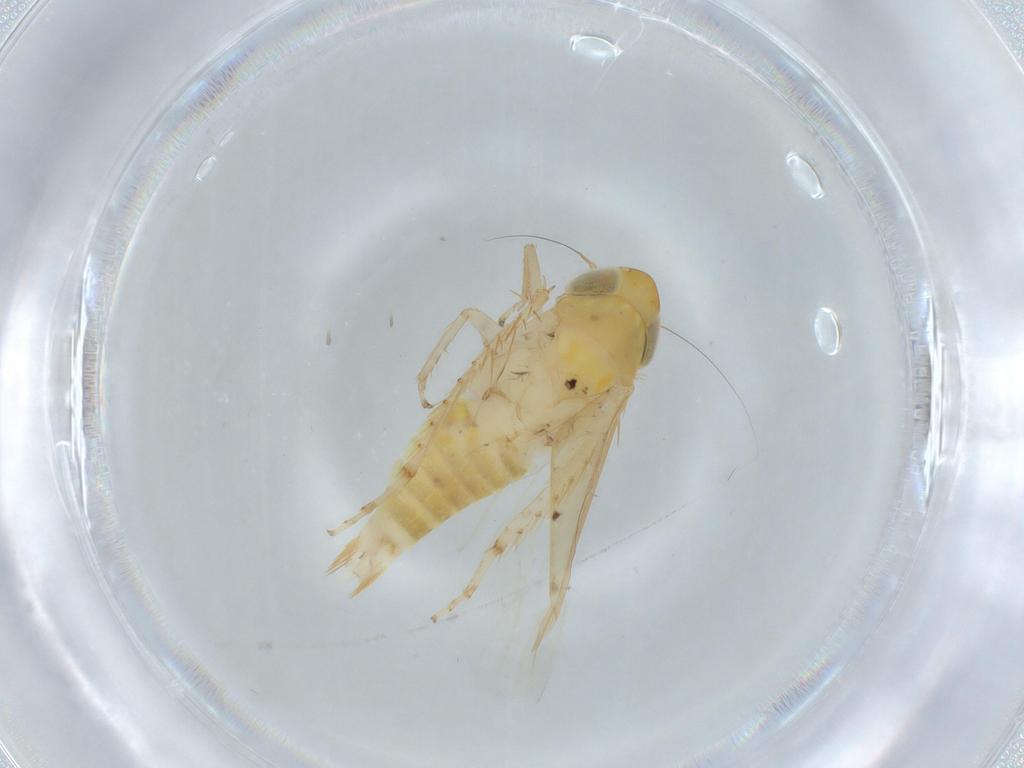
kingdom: Animalia
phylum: Arthropoda
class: Insecta
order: Hemiptera
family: Cicadellidae
